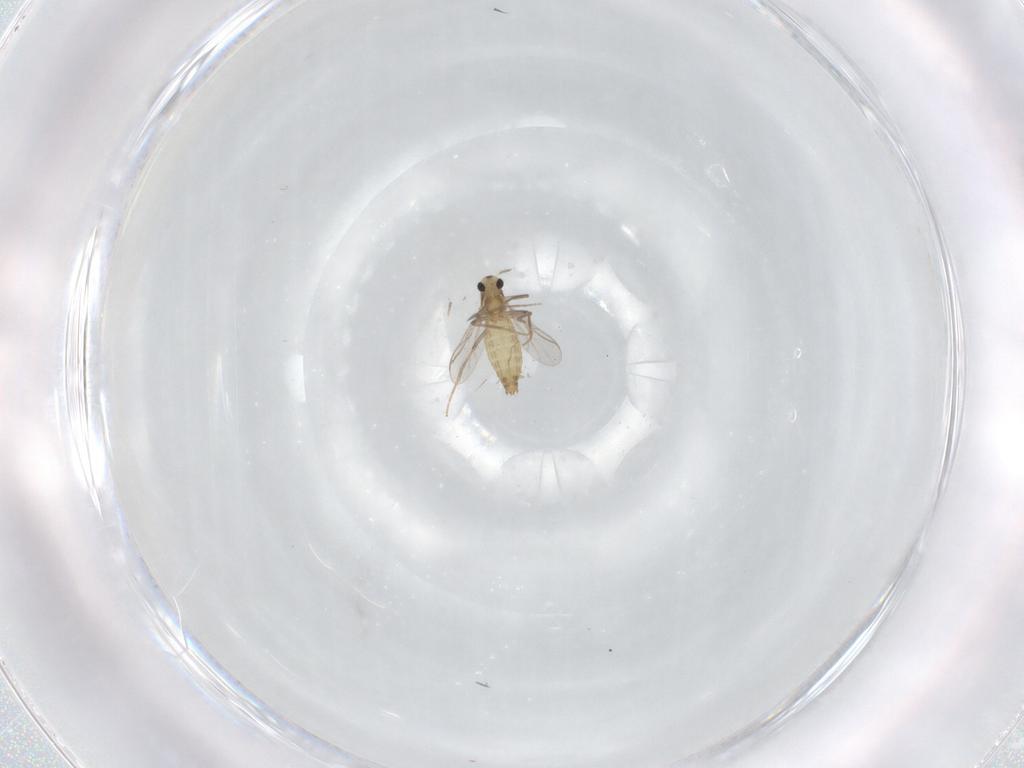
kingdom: Animalia
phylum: Arthropoda
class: Insecta
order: Diptera
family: Chironomidae
